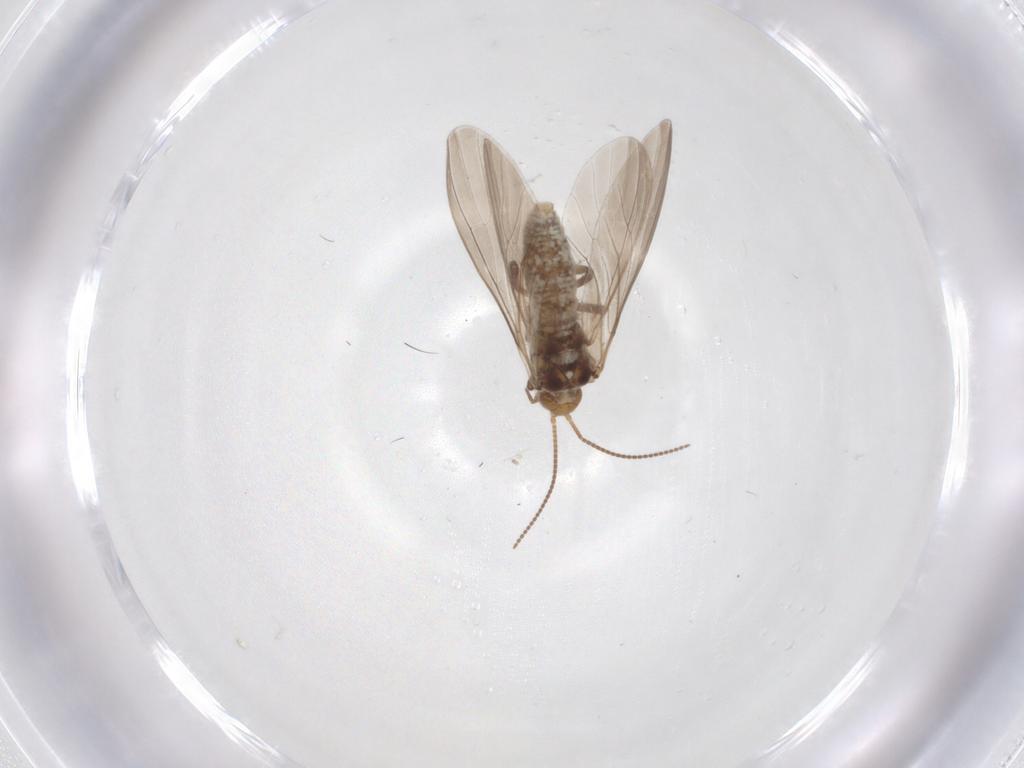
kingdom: Animalia
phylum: Arthropoda
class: Insecta
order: Neuroptera
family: Coniopterygidae
